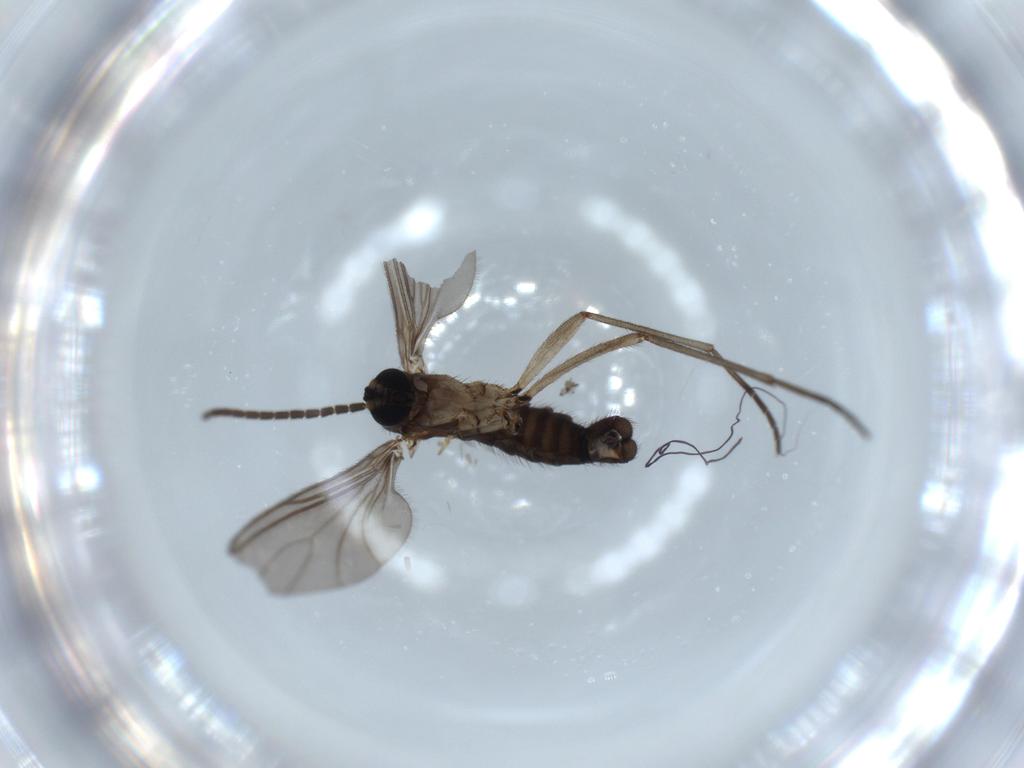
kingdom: Animalia
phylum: Arthropoda
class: Insecta
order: Diptera
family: Sciaridae
